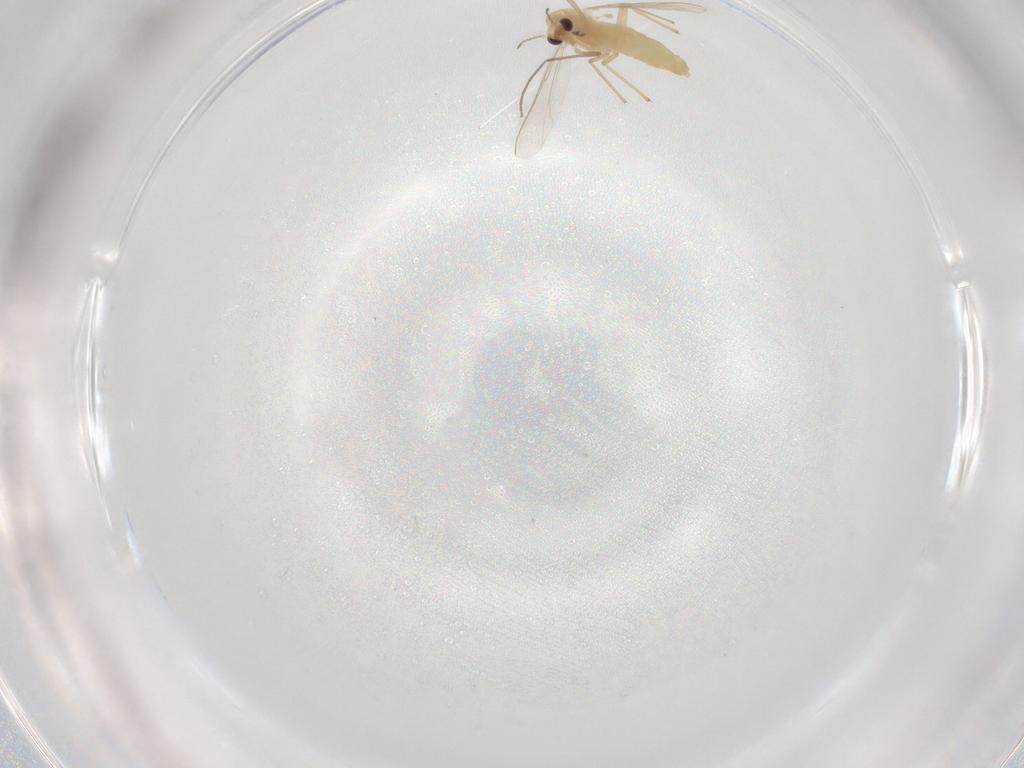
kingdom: Animalia
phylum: Arthropoda
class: Insecta
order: Diptera
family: Chironomidae
